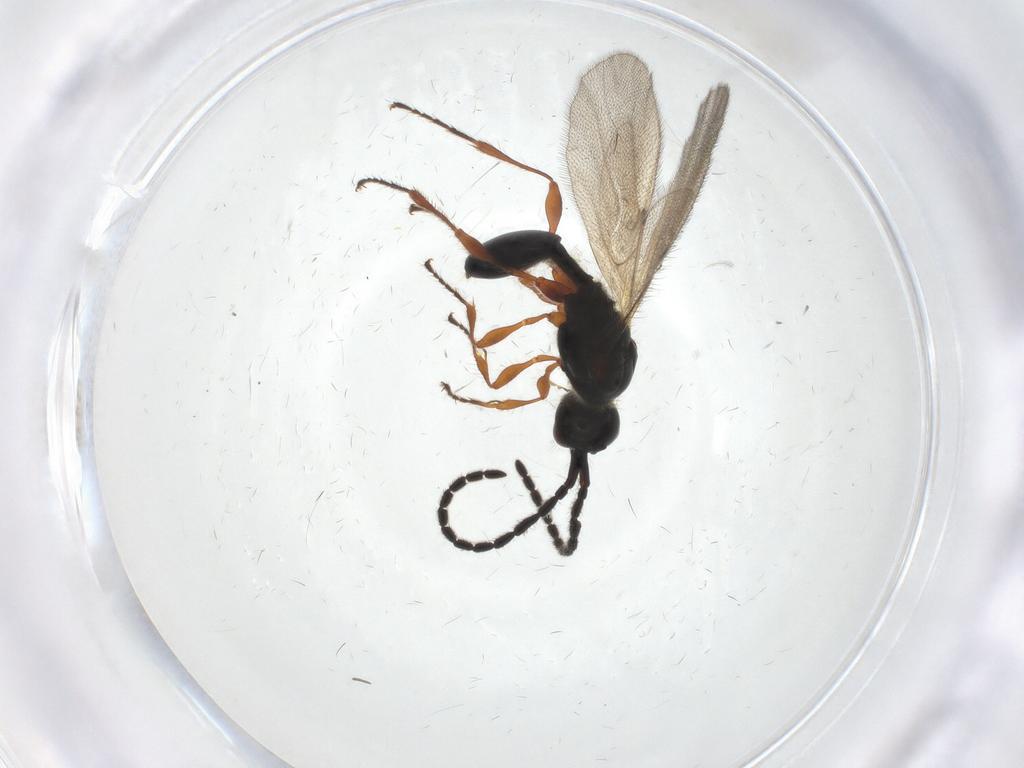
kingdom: Animalia
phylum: Arthropoda
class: Insecta
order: Hymenoptera
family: Diapriidae
